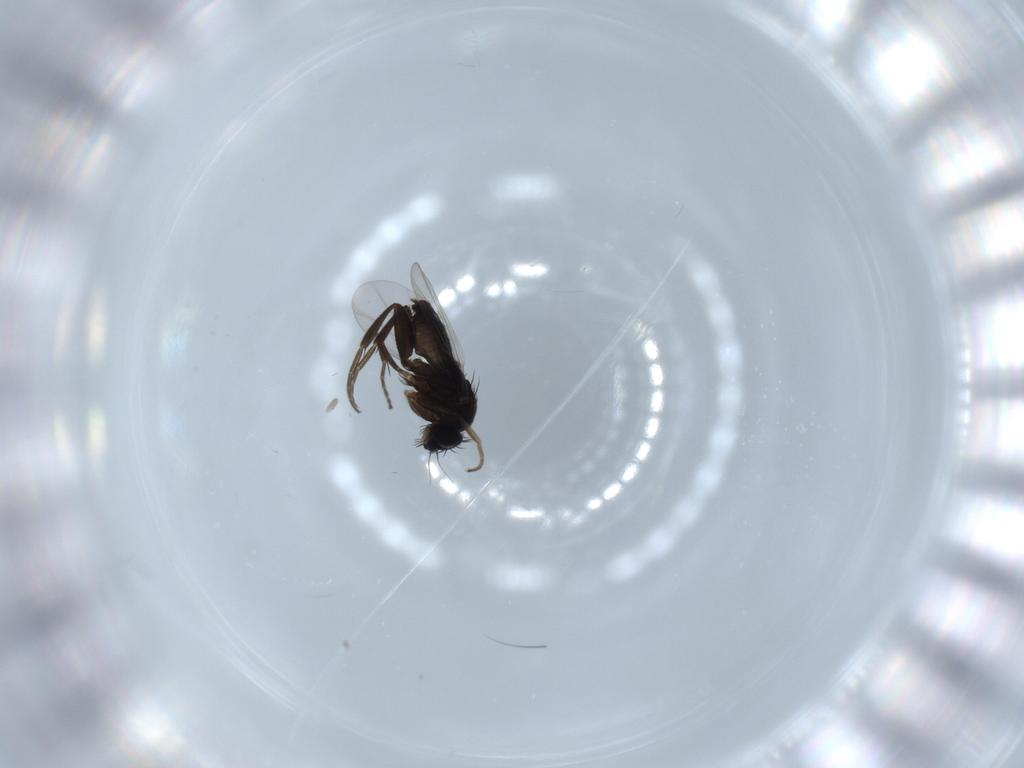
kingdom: Animalia
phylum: Arthropoda
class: Insecta
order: Diptera
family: Phoridae
